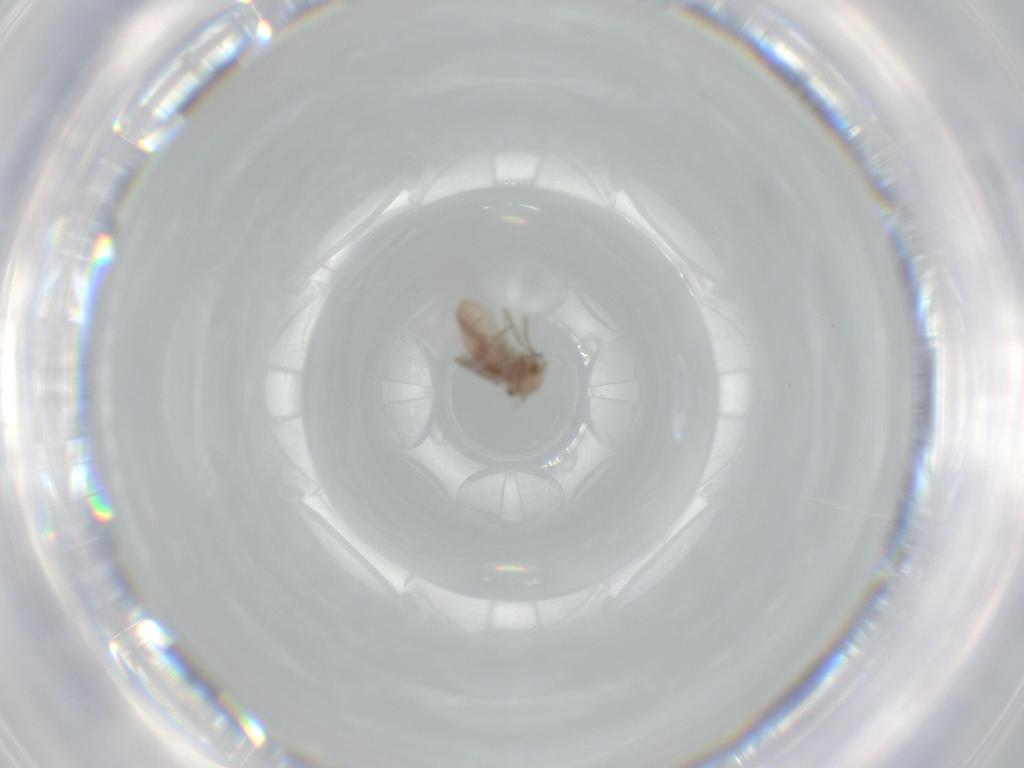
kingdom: Animalia
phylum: Arthropoda
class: Insecta
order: Psocodea
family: Ectopsocidae
